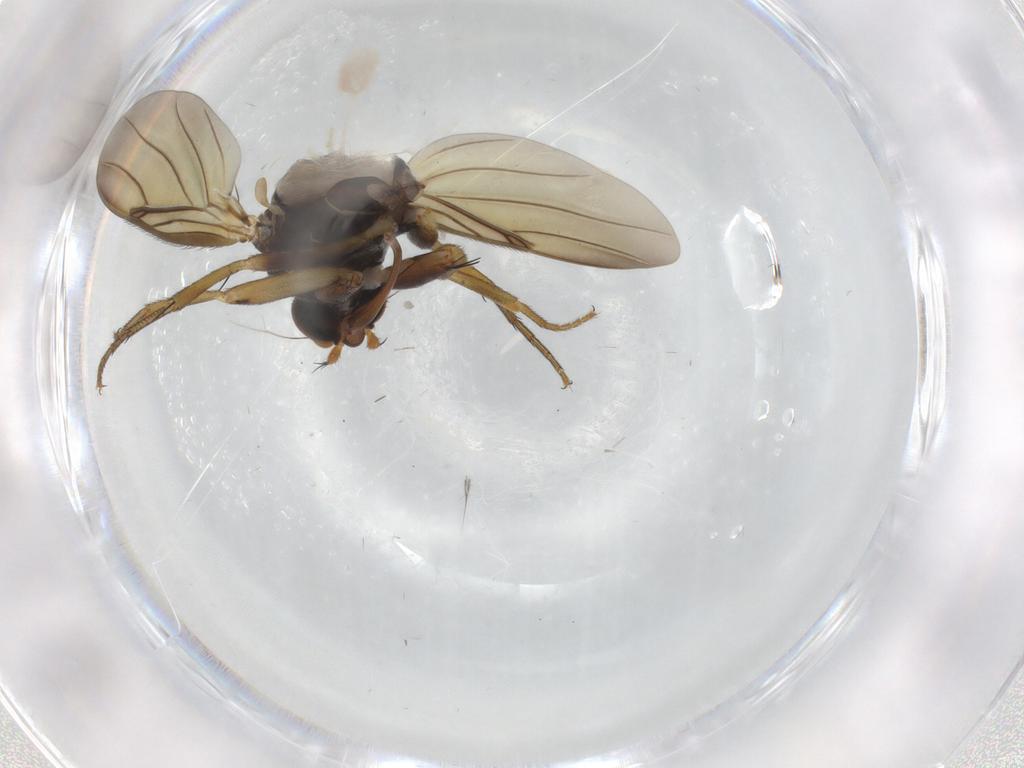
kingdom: Animalia
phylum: Arthropoda
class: Insecta
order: Diptera
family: Phoridae
